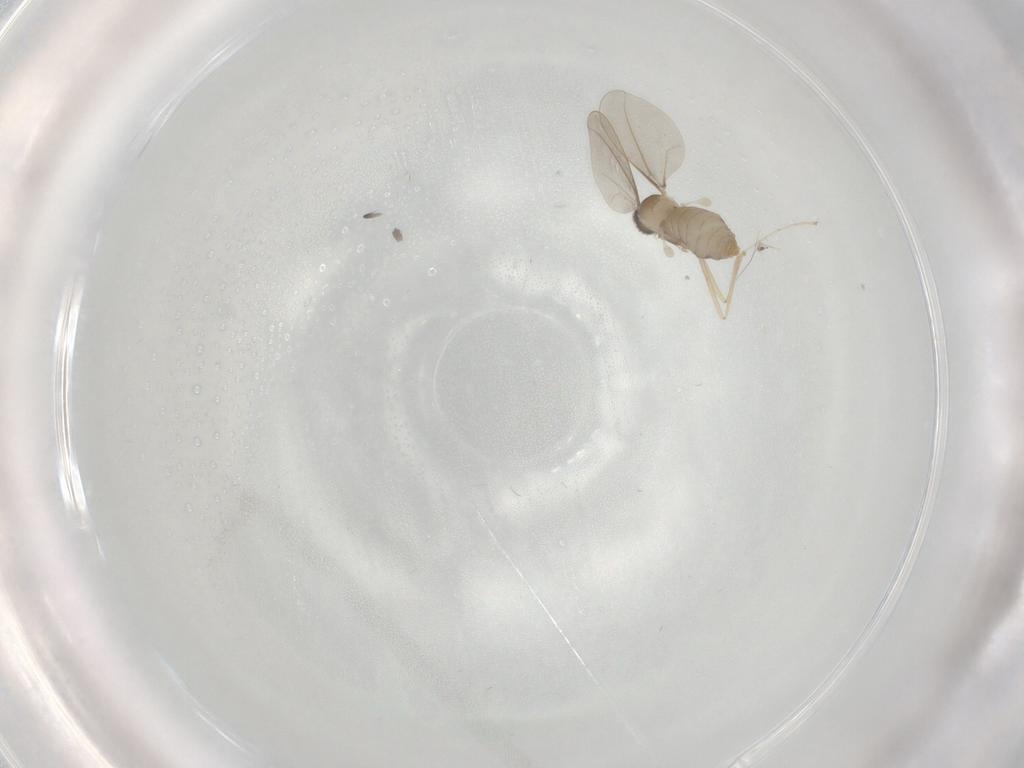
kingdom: Animalia
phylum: Arthropoda
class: Insecta
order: Diptera
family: Cecidomyiidae
